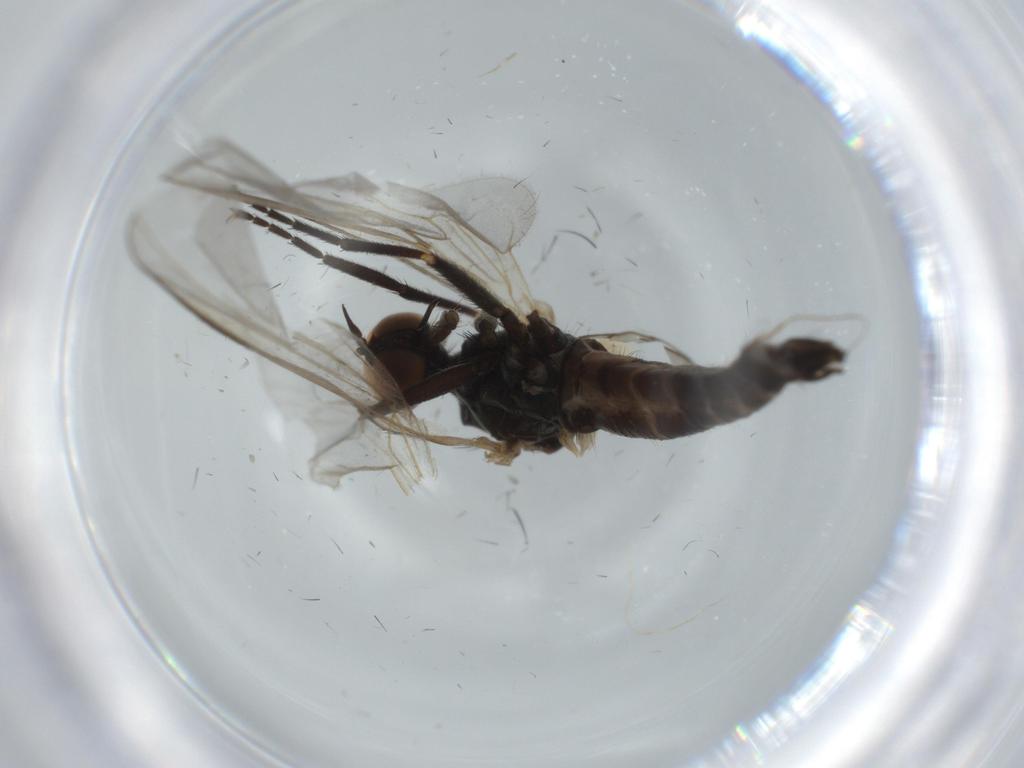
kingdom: Animalia
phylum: Arthropoda
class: Insecta
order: Diptera
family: Empididae
